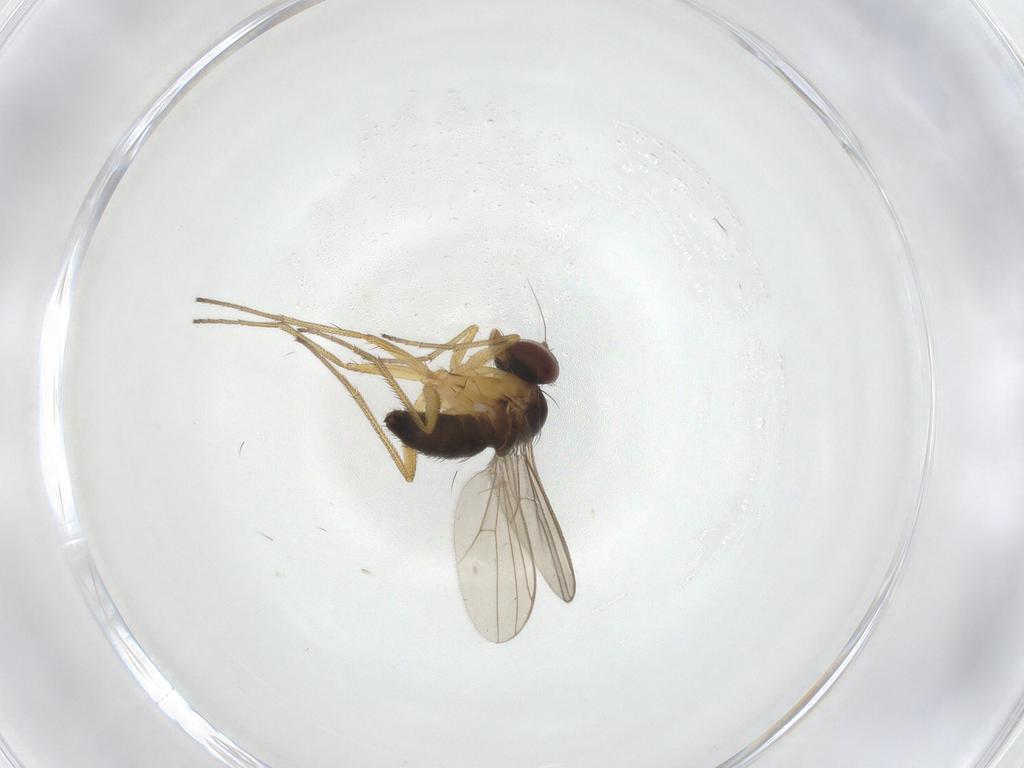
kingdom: Animalia
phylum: Arthropoda
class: Insecta
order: Diptera
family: Dolichopodidae
